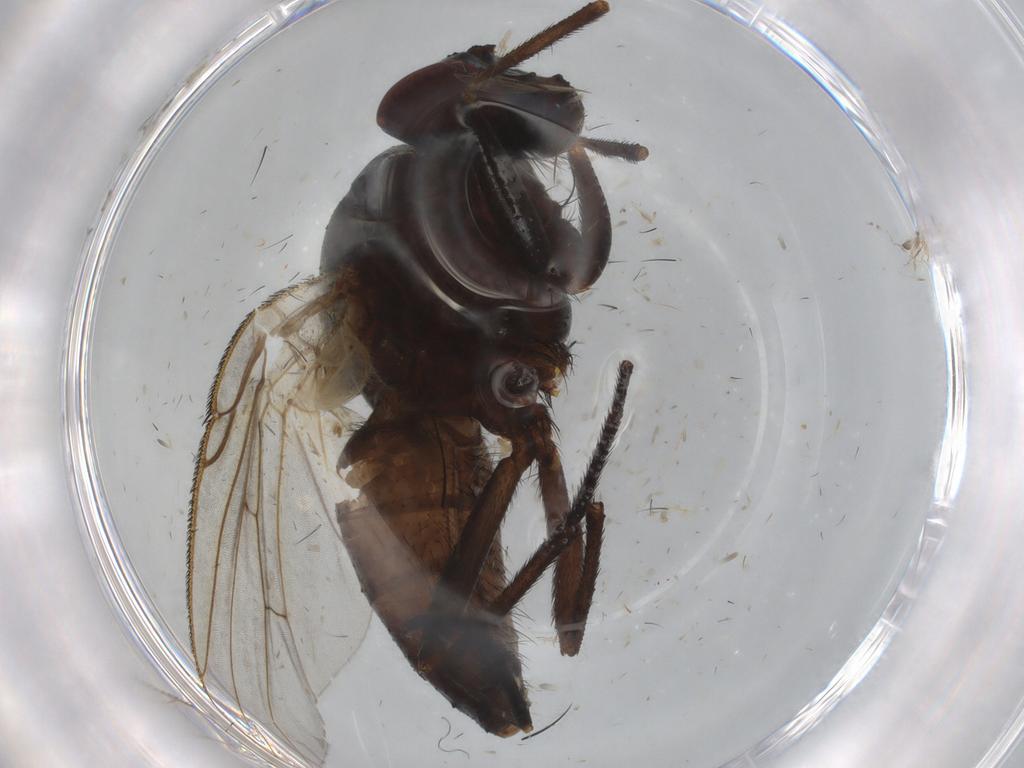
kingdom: Animalia
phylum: Arthropoda
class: Insecta
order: Diptera
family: Muscidae
